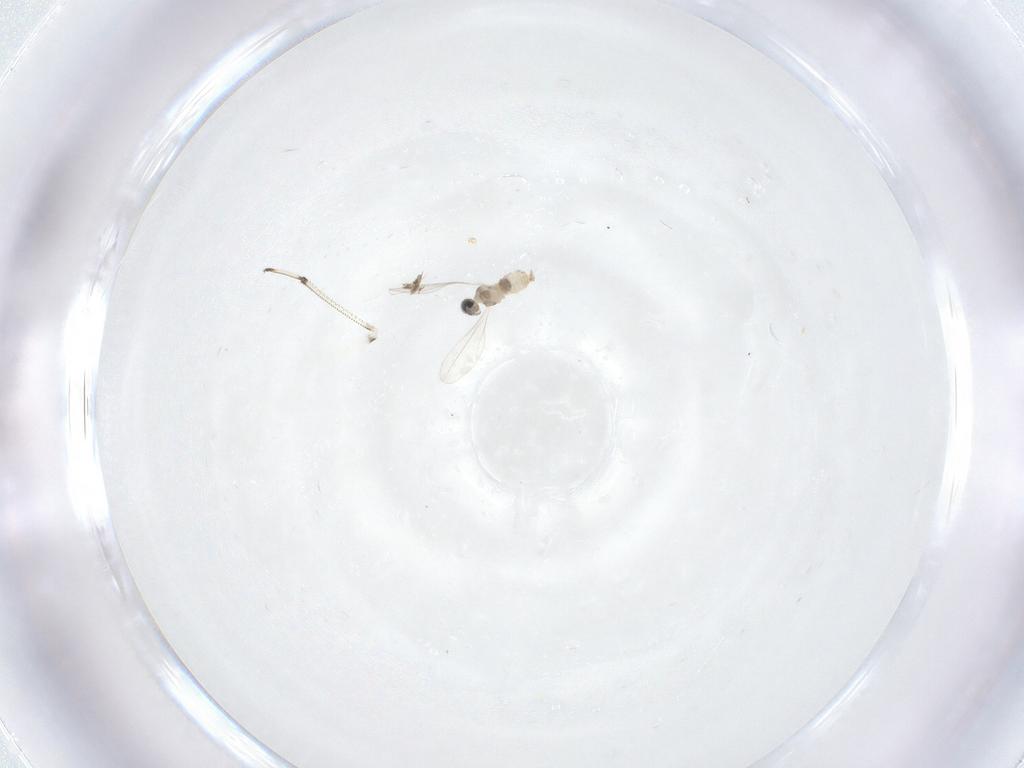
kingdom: Animalia
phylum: Arthropoda
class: Insecta
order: Diptera
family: Cecidomyiidae
